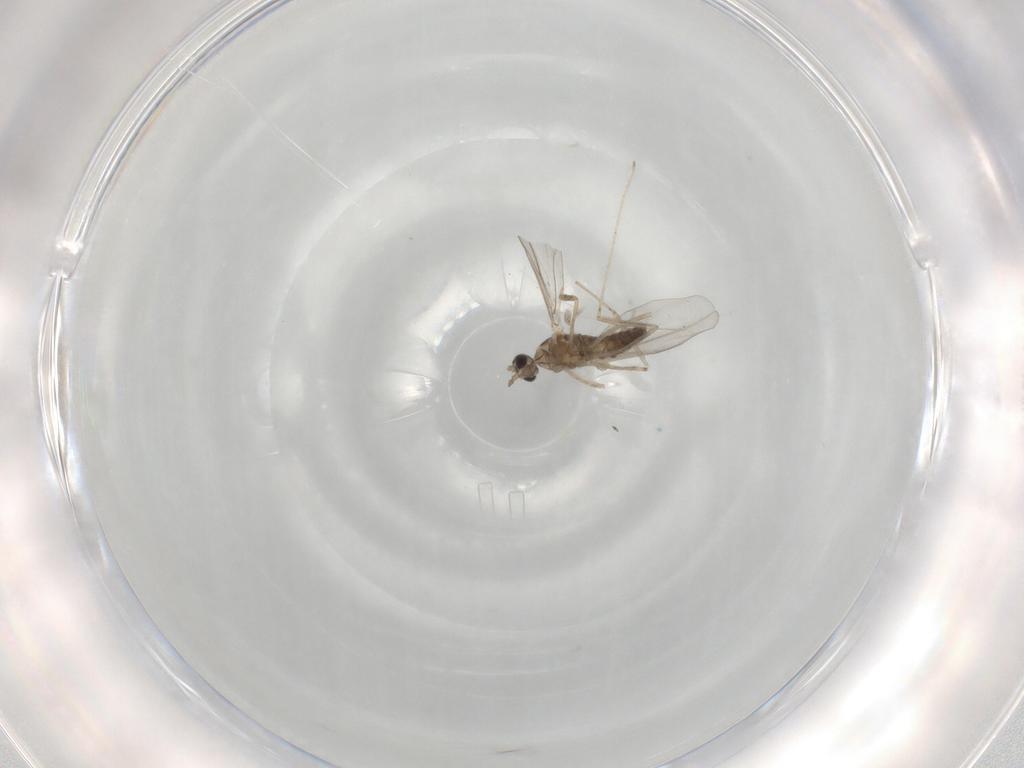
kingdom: Animalia
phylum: Arthropoda
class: Insecta
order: Diptera
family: Cecidomyiidae
